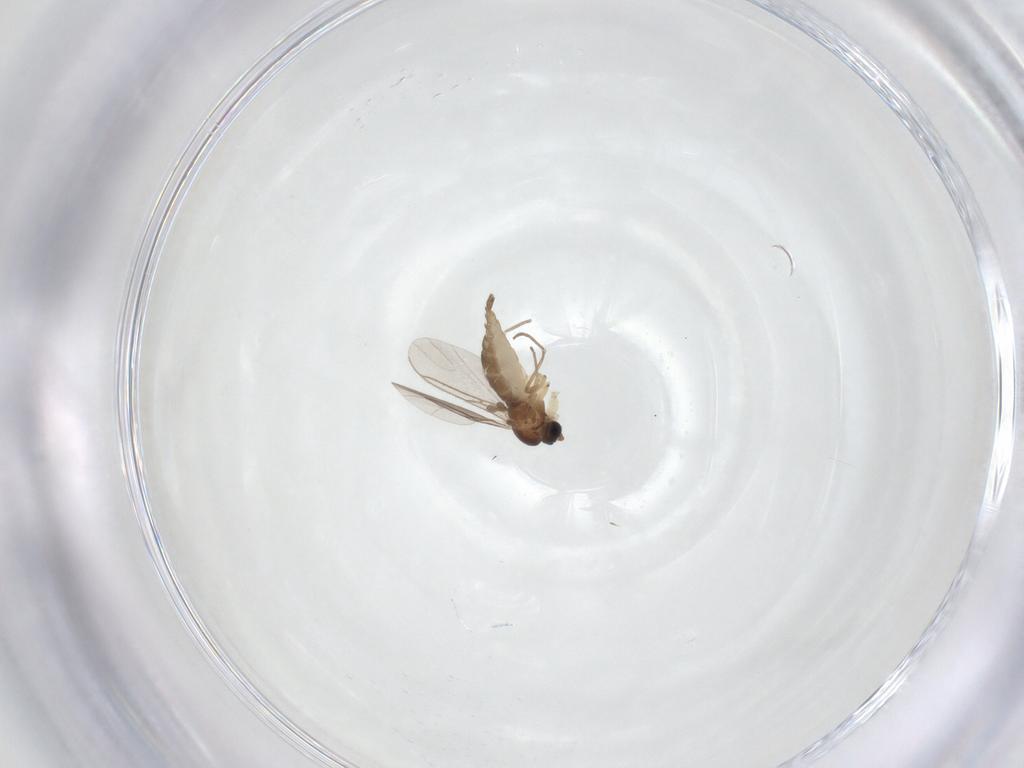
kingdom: Animalia
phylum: Arthropoda
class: Insecta
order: Diptera
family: Sciaridae
